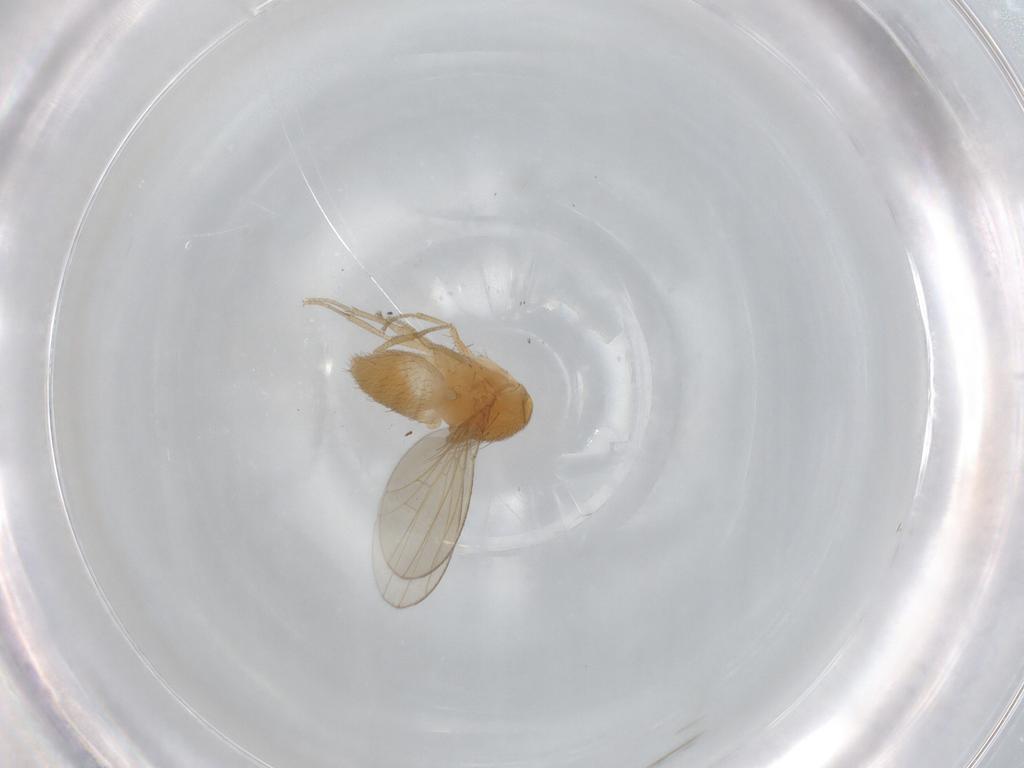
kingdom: Animalia
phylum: Arthropoda
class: Insecta
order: Diptera
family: Drosophilidae
